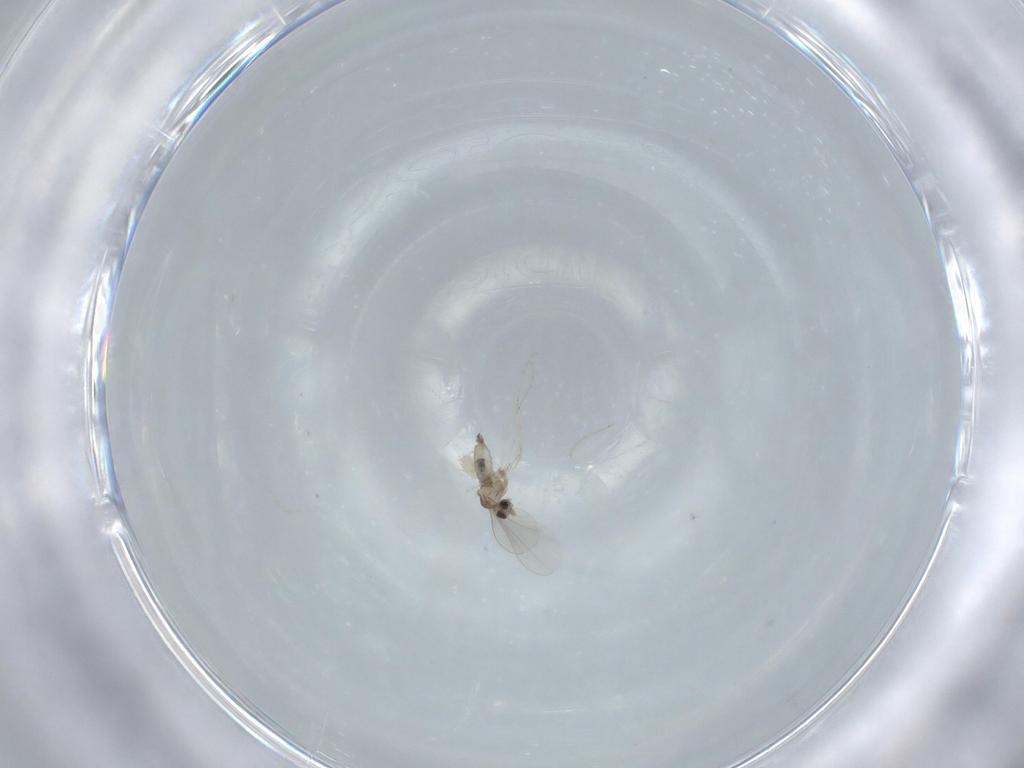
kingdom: Animalia
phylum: Arthropoda
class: Insecta
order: Diptera
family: Cecidomyiidae
